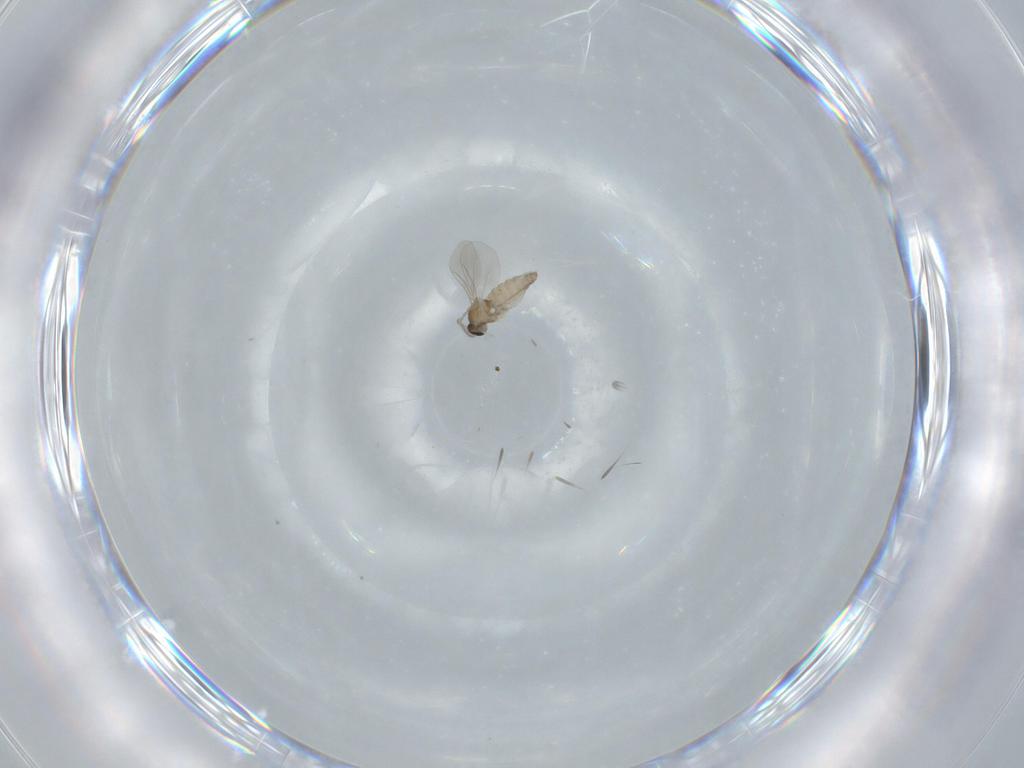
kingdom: Animalia
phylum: Arthropoda
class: Insecta
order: Diptera
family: Cecidomyiidae
